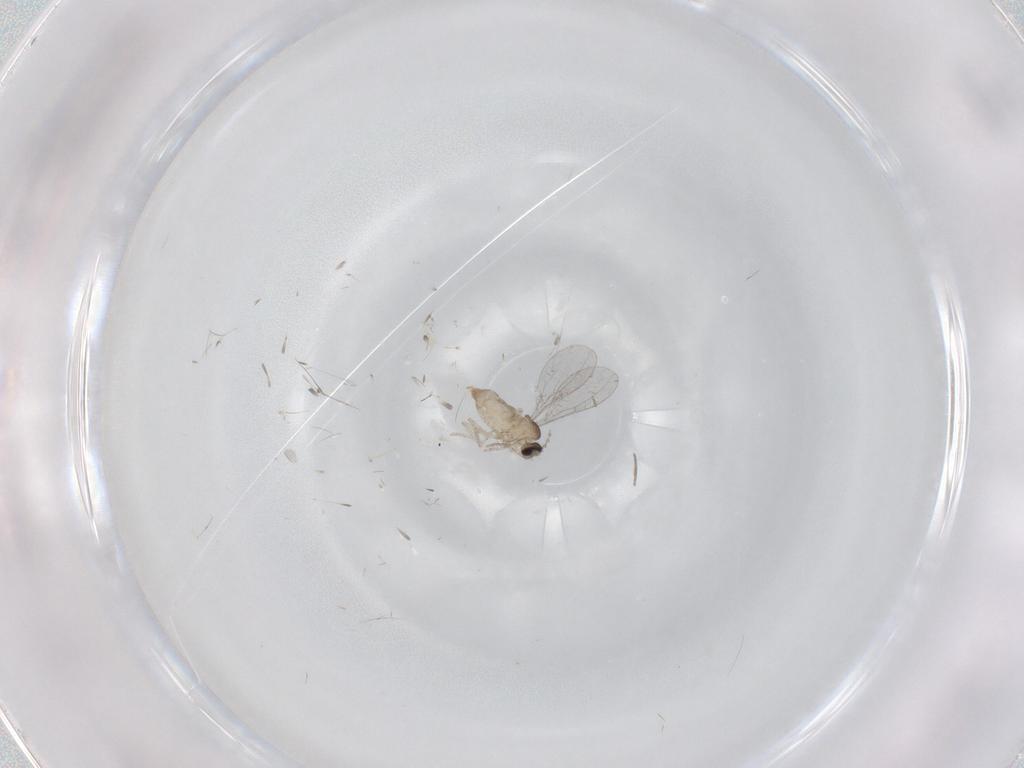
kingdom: Animalia
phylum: Arthropoda
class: Insecta
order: Diptera
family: Cecidomyiidae
